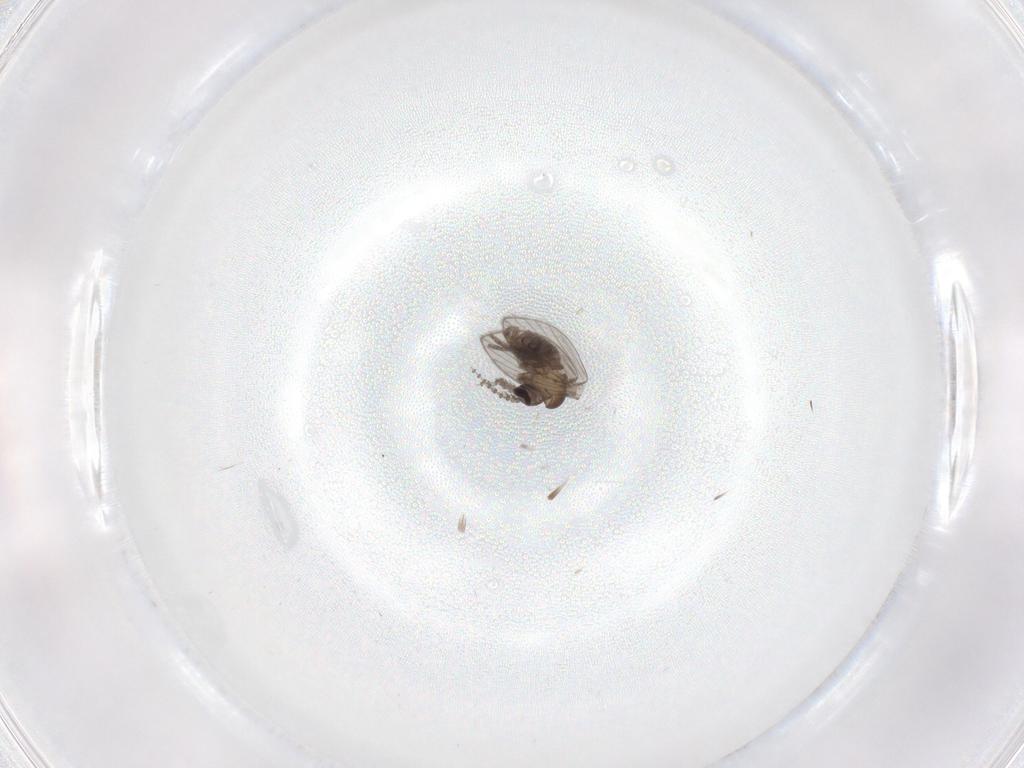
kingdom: Animalia
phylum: Arthropoda
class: Insecta
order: Diptera
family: Psychodidae
